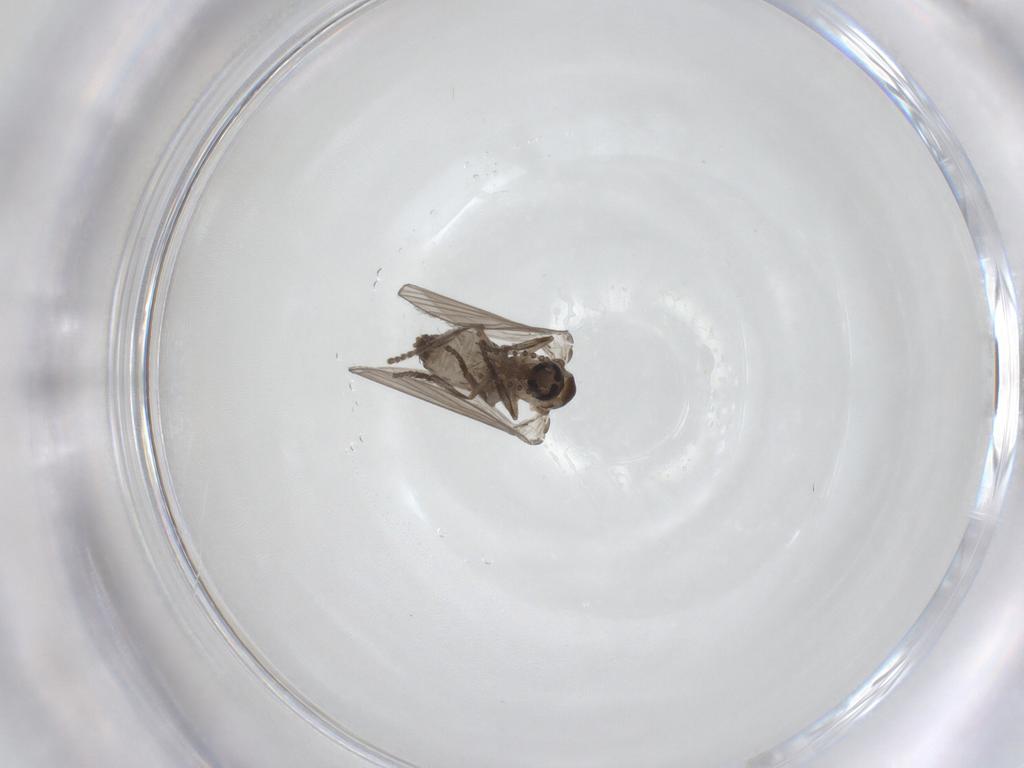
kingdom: Animalia
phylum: Arthropoda
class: Insecta
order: Diptera
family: Psychodidae
